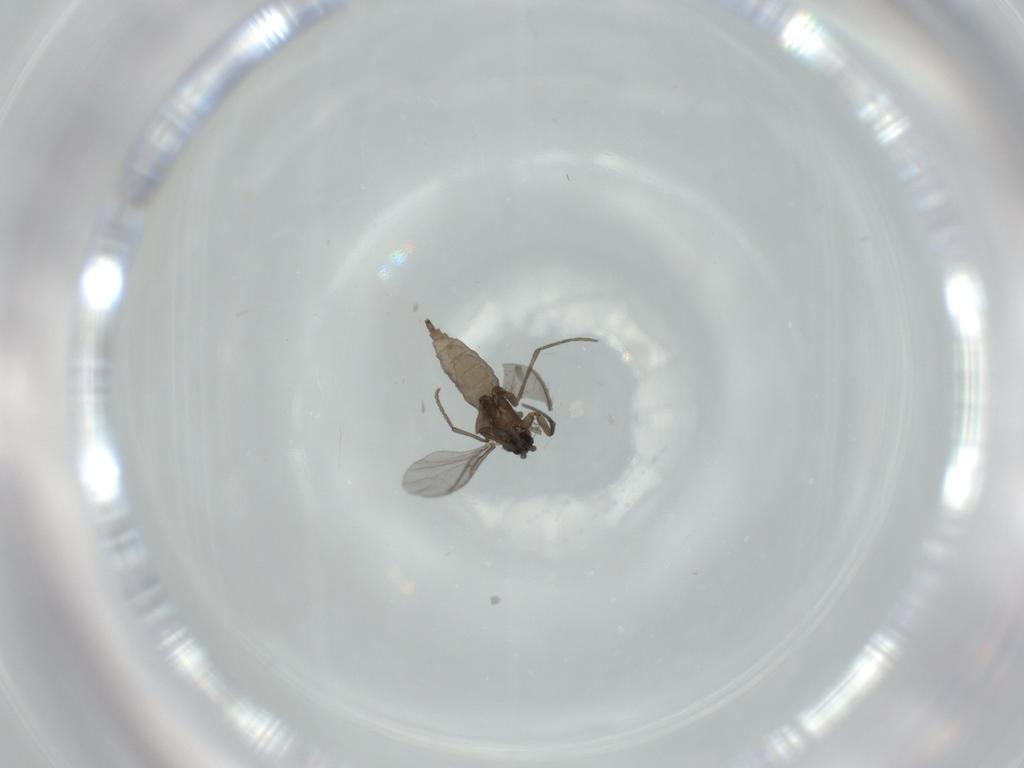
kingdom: Animalia
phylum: Arthropoda
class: Insecta
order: Diptera
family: Sciaridae
